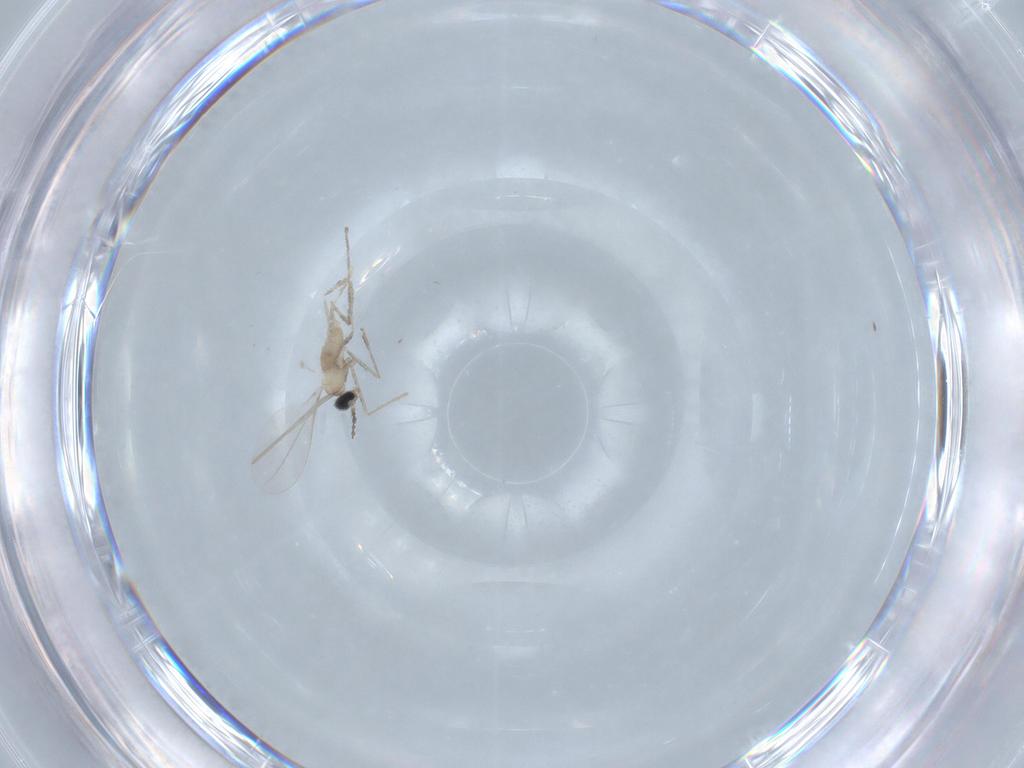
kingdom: Animalia
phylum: Arthropoda
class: Insecta
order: Diptera
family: Cecidomyiidae
